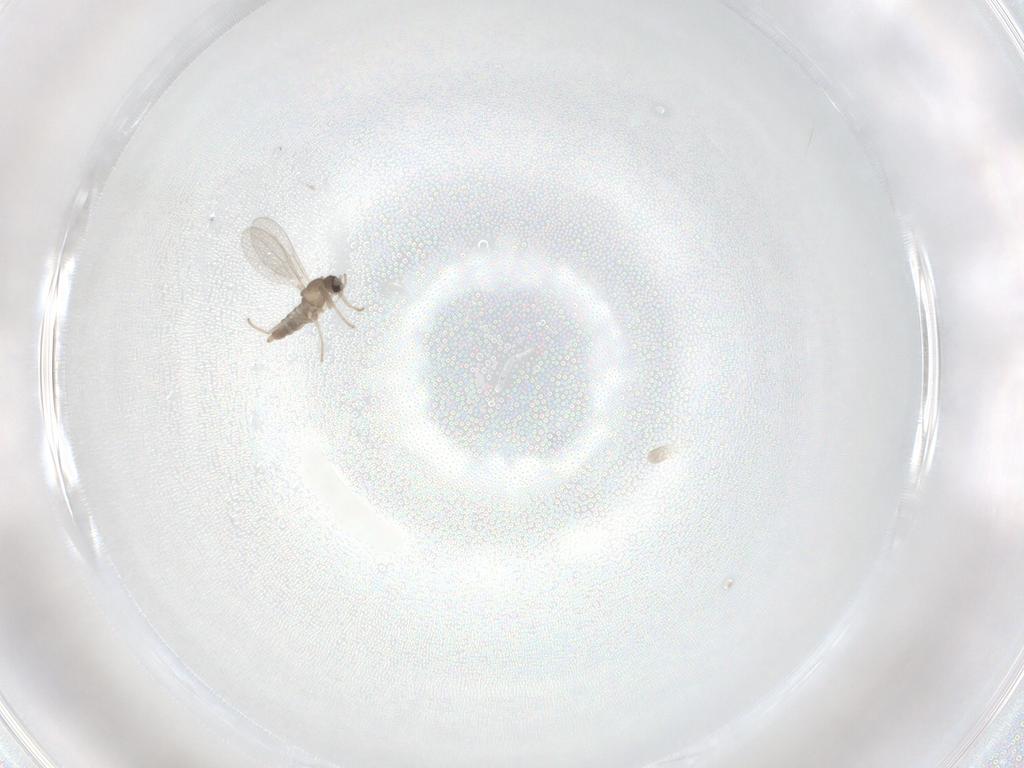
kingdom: Animalia
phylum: Arthropoda
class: Insecta
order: Diptera
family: Cecidomyiidae
